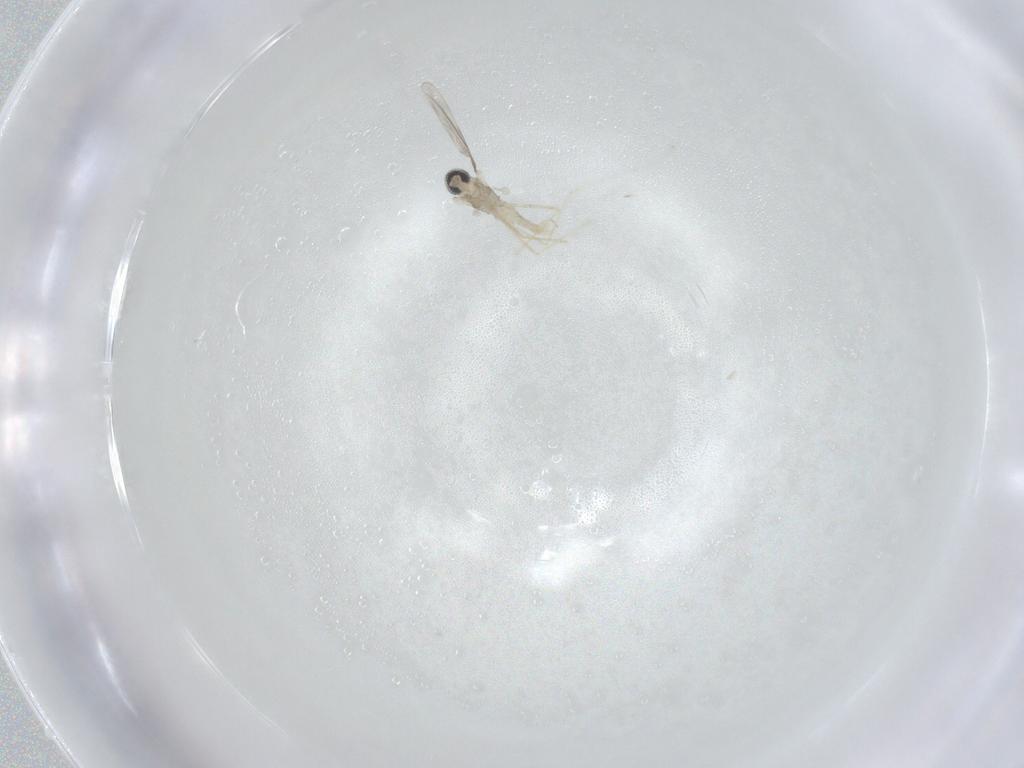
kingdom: Animalia
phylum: Arthropoda
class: Insecta
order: Diptera
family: Cecidomyiidae
